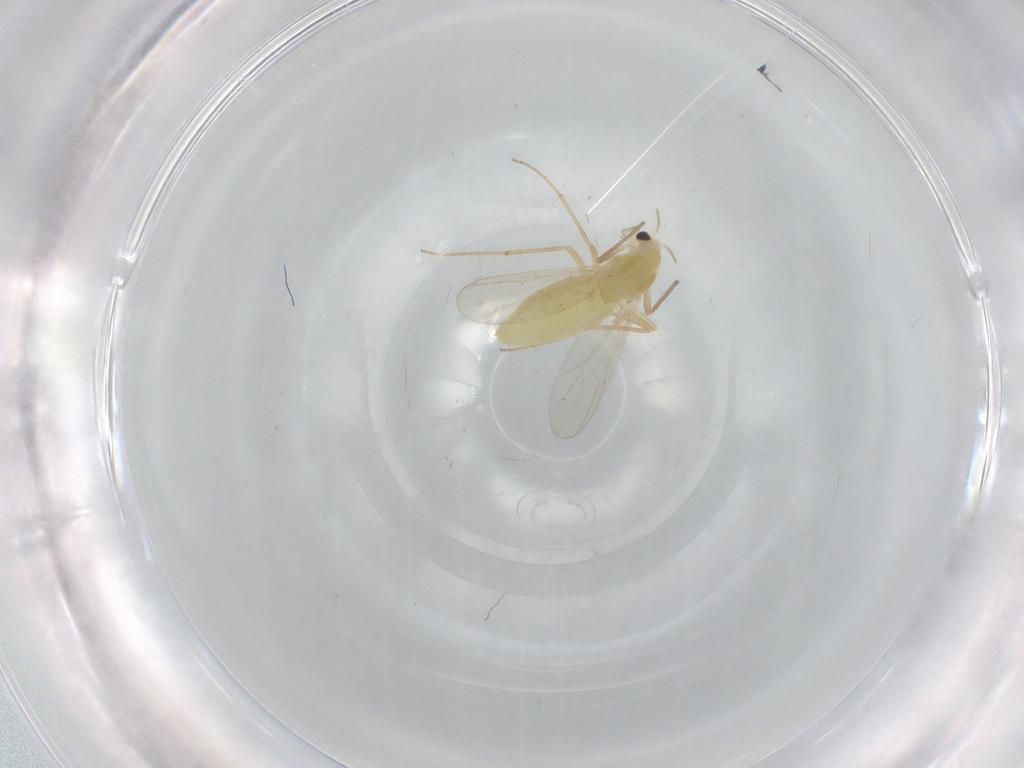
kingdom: Animalia
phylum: Arthropoda
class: Insecta
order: Diptera
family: Chironomidae
